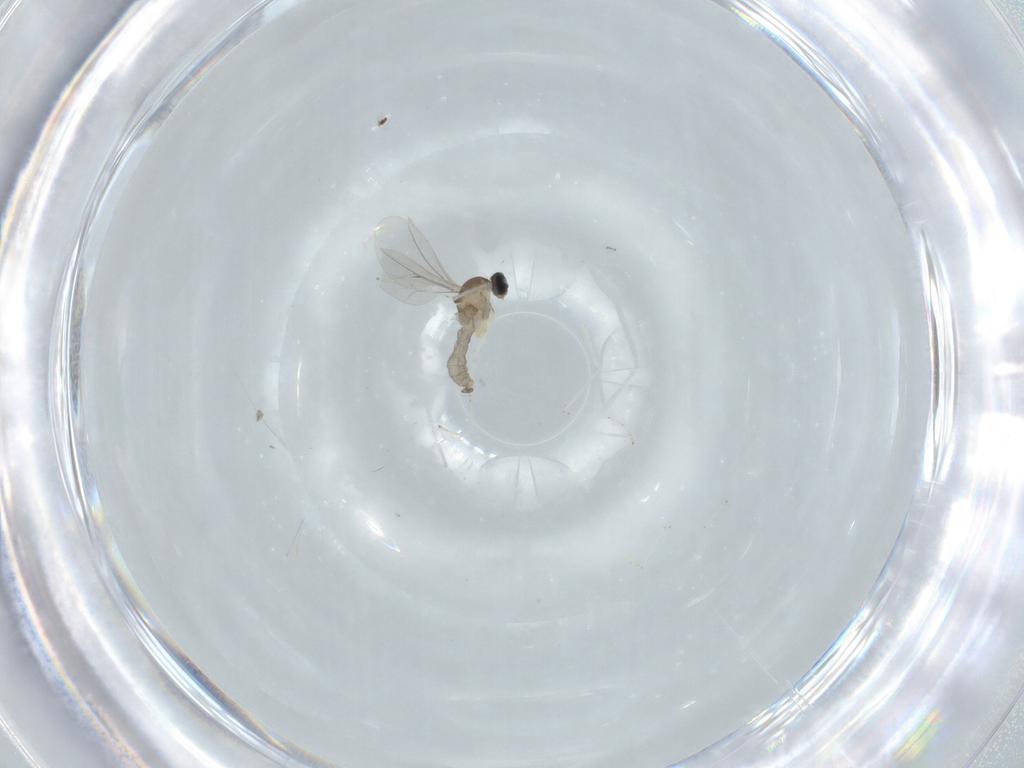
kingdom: Animalia
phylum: Arthropoda
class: Insecta
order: Diptera
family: Cecidomyiidae
